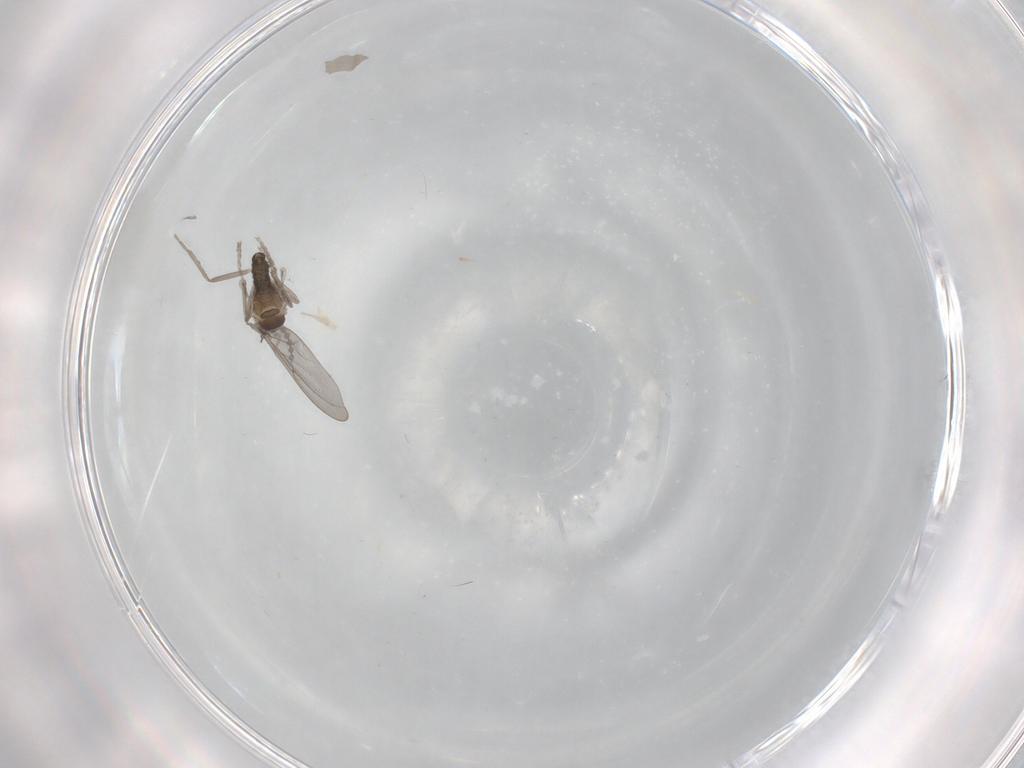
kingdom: Animalia
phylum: Arthropoda
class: Insecta
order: Diptera
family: Cecidomyiidae
